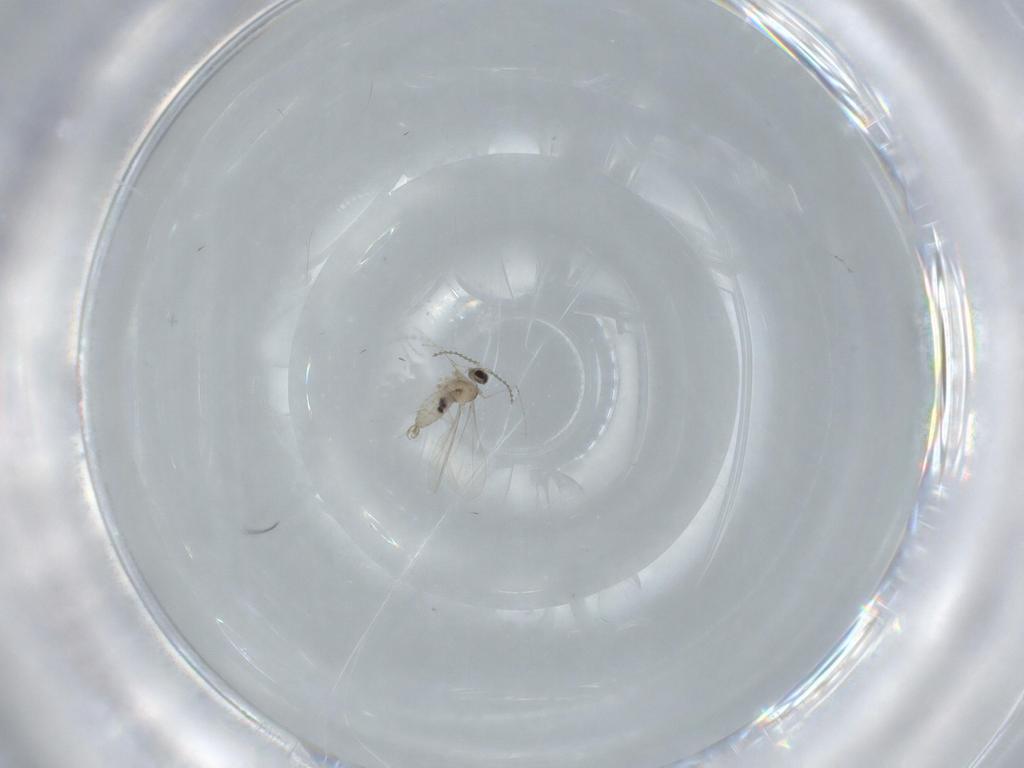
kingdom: Animalia
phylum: Arthropoda
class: Insecta
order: Diptera
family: Cecidomyiidae
